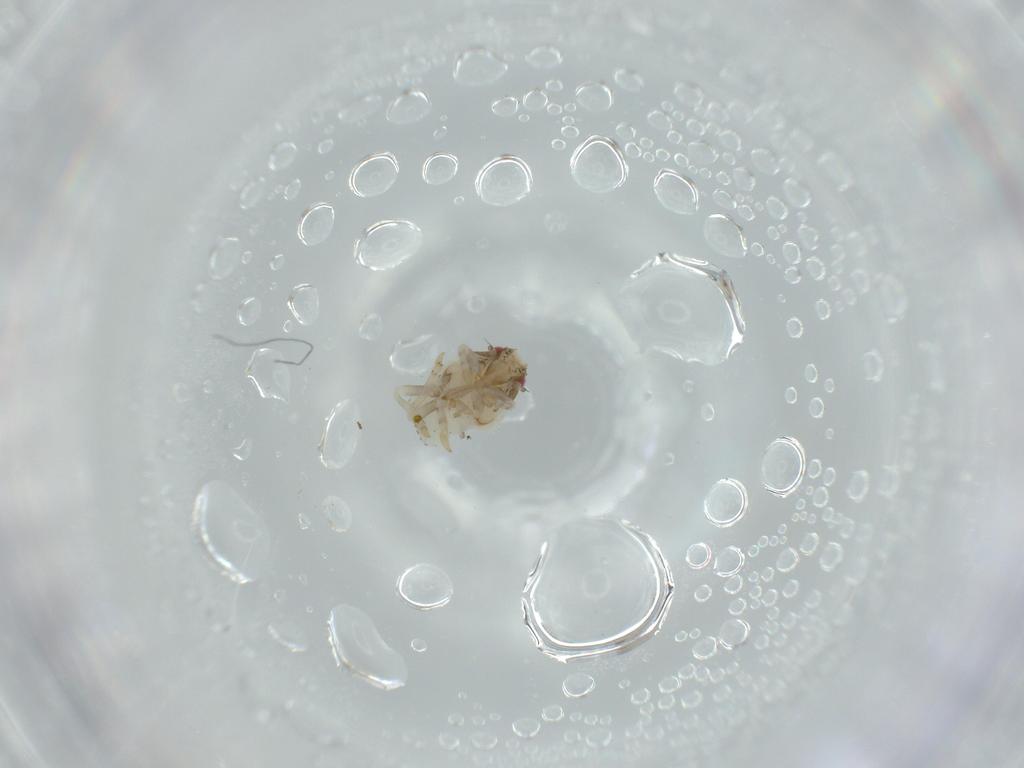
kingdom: Animalia
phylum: Arthropoda
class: Insecta
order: Hemiptera
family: Acanaloniidae
